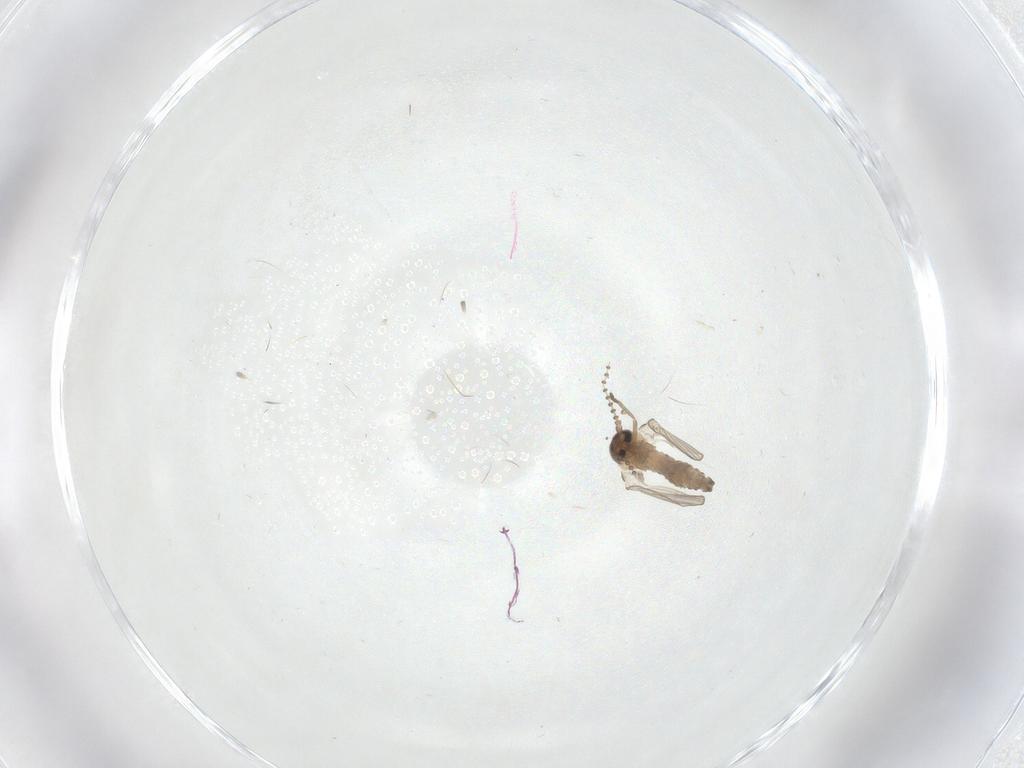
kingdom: Animalia
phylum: Arthropoda
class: Insecta
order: Diptera
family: Psychodidae
